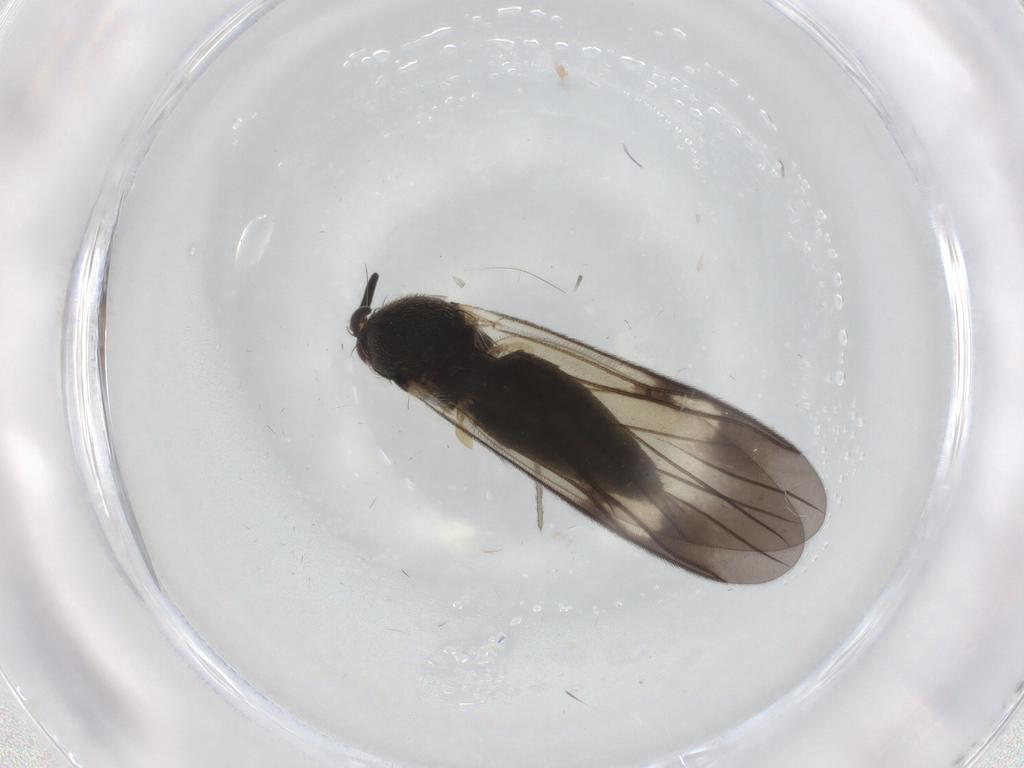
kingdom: Animalia
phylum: Arthropoda
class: Insecta
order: Diptera
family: Mycetophilidae
